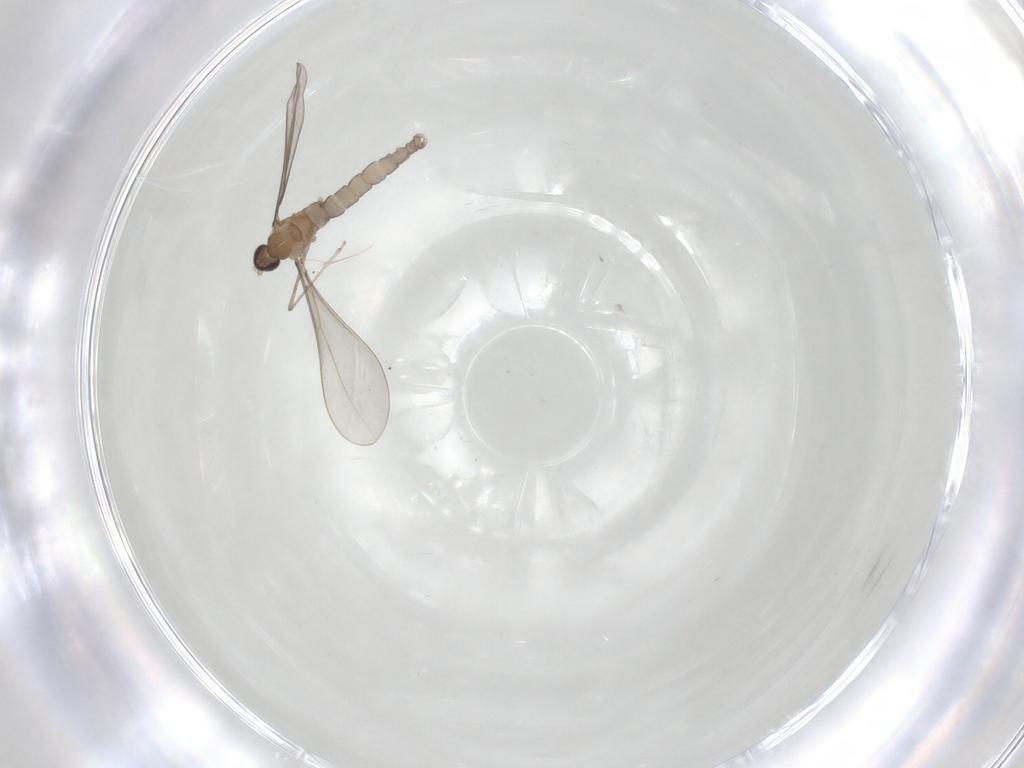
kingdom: Animalia
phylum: Arthropoda
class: Insecta
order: Diptera
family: Cecidomyiidae
